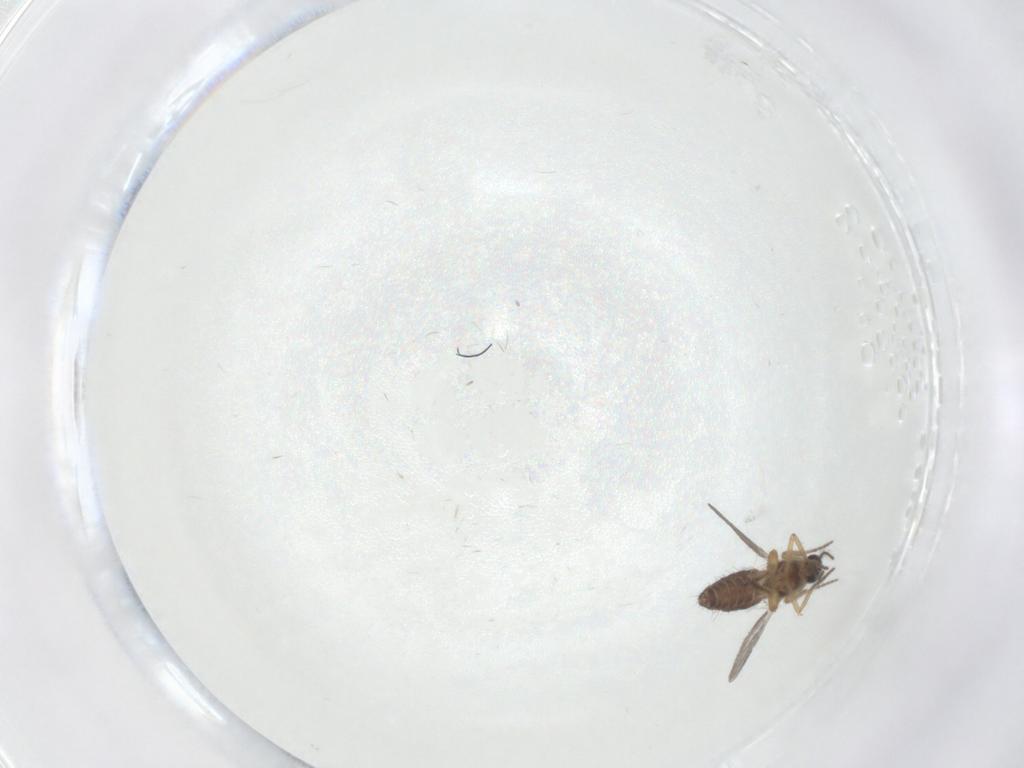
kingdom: Animalia
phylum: Arthropoda
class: Insecta
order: Diptera
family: Ceratopogonidae
